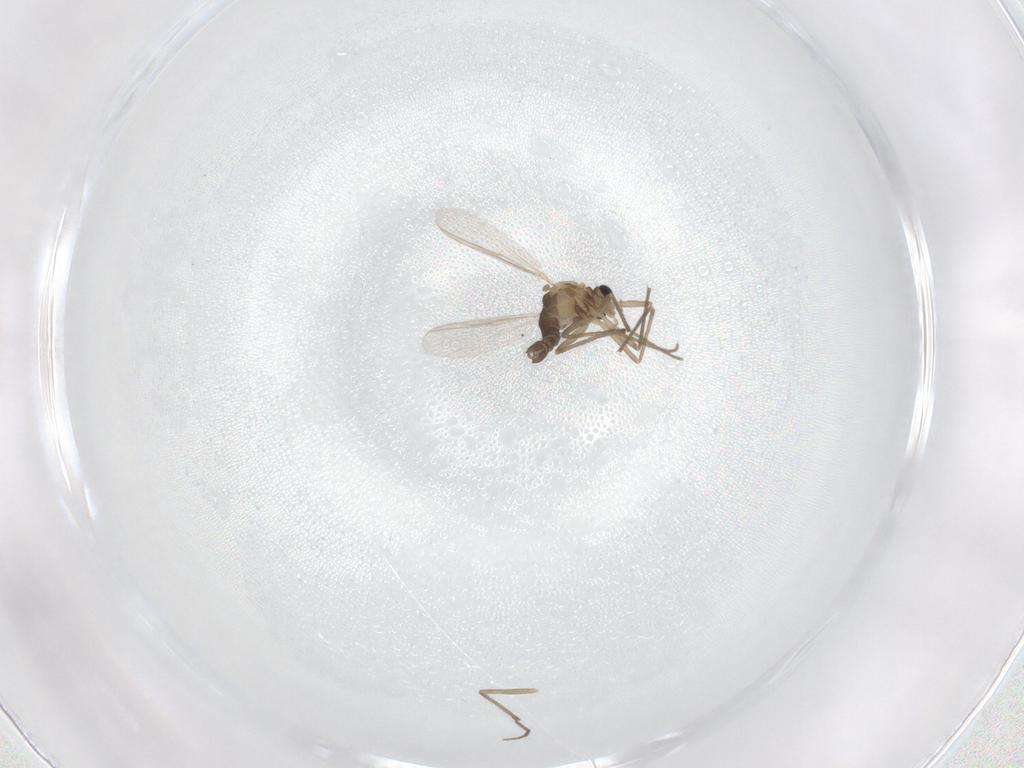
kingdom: Animalia
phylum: Arthropoda
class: Insecta
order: Diptera
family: Chironomidae
